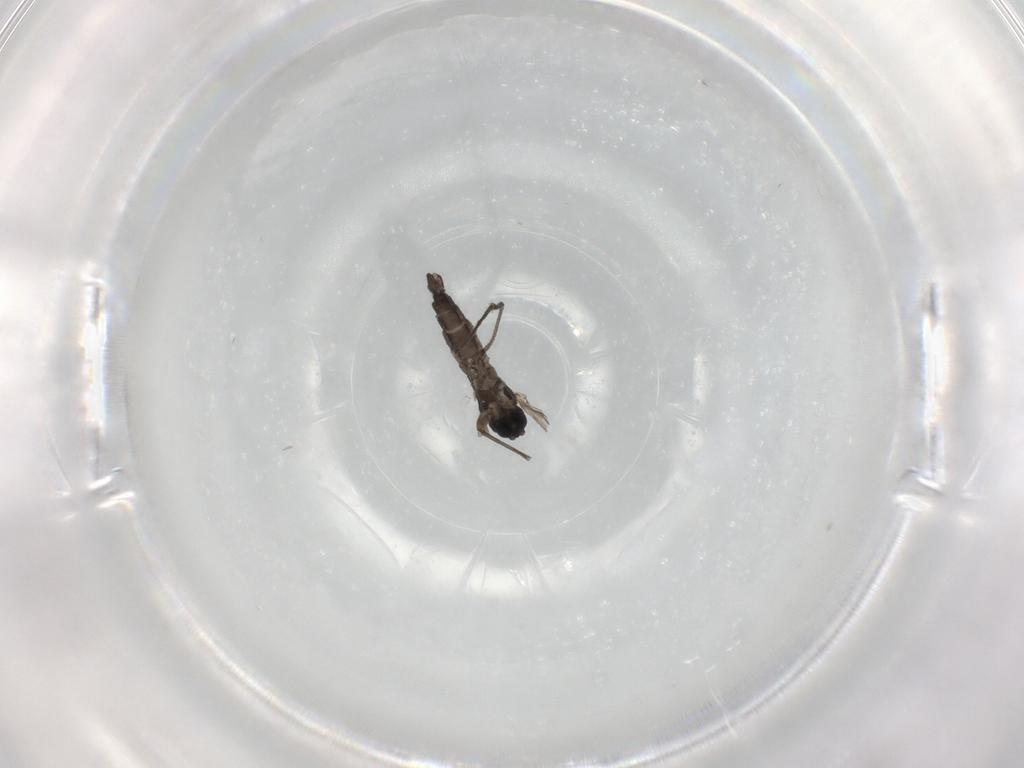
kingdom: Animalia
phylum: Arthropoda
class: Insecta
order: Diptera
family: Sciaridae
